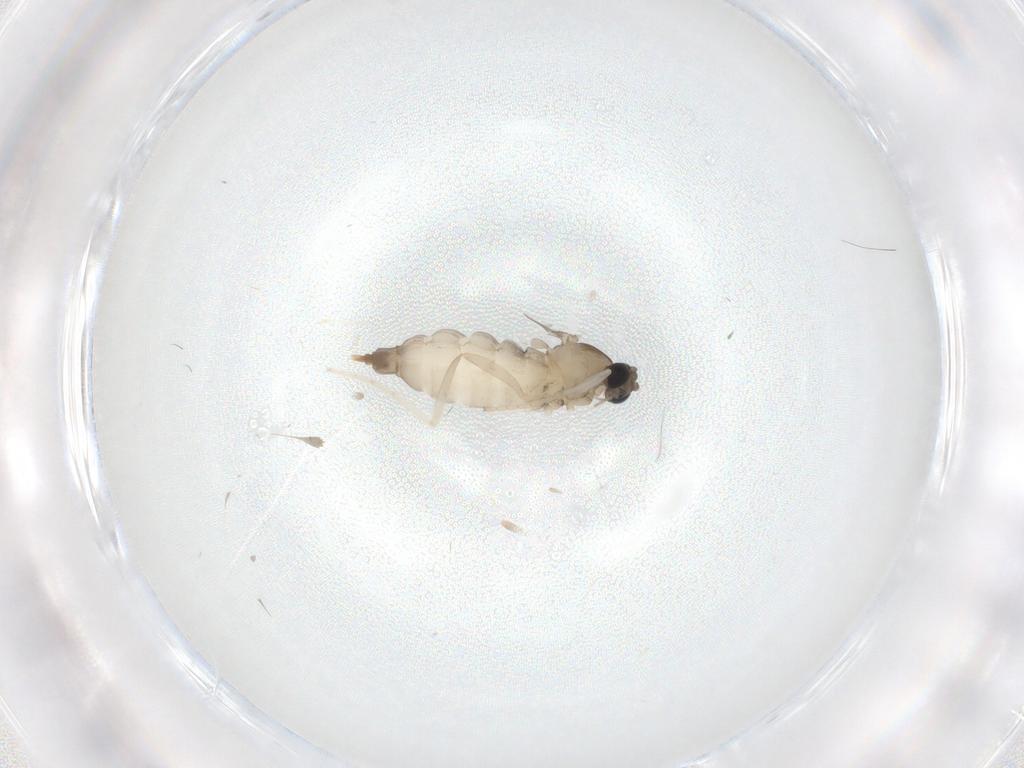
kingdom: Animalia
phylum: Arthropoda
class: Insecta
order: Diptera
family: Cecidomyiidae
